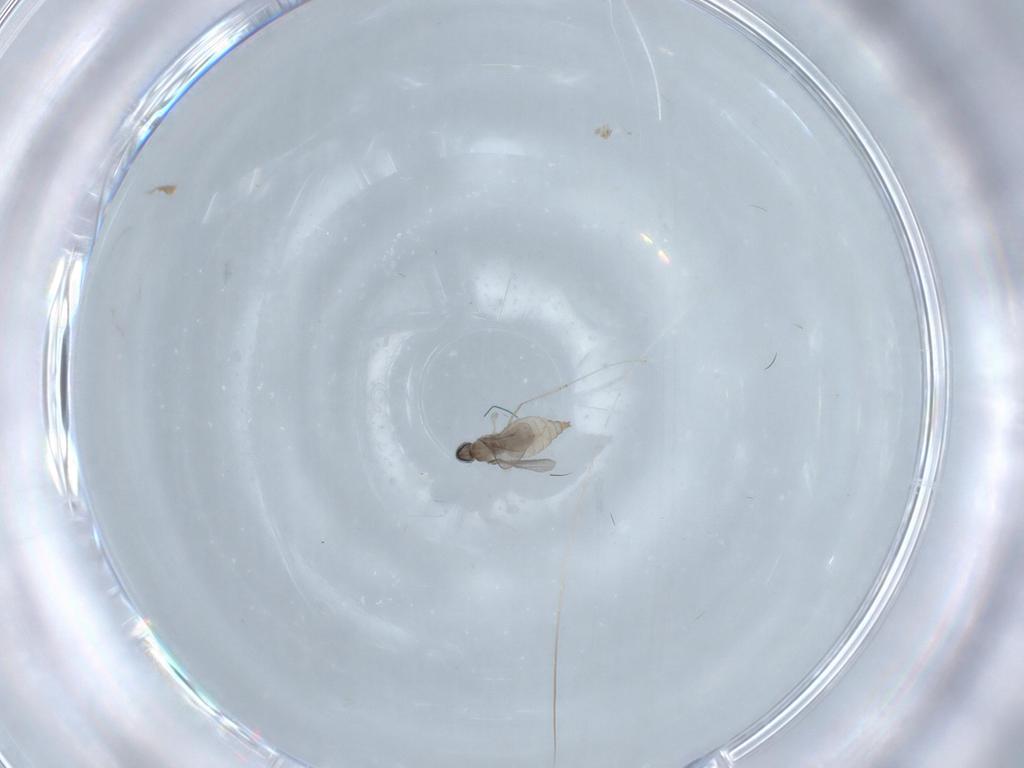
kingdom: Animalia
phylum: Arthropoda
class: Insecta
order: Diptera
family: Cecidomyiidae
